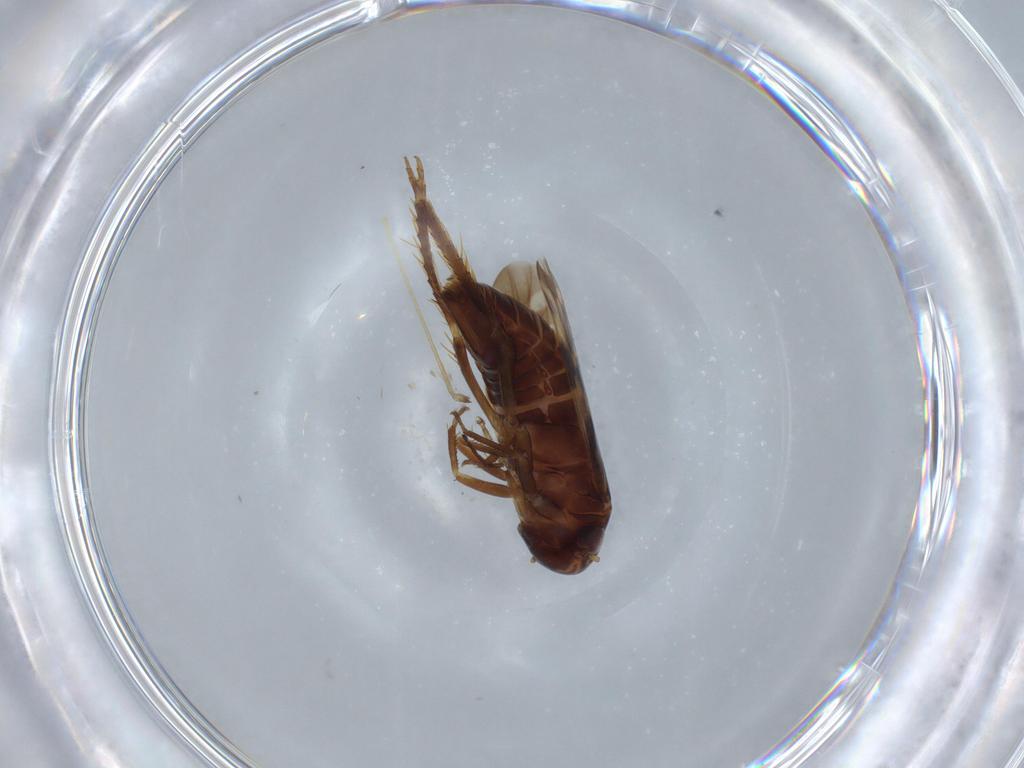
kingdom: Animalia
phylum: Arthropoda
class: Insecta
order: Hemiptera
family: Cicadellidae
